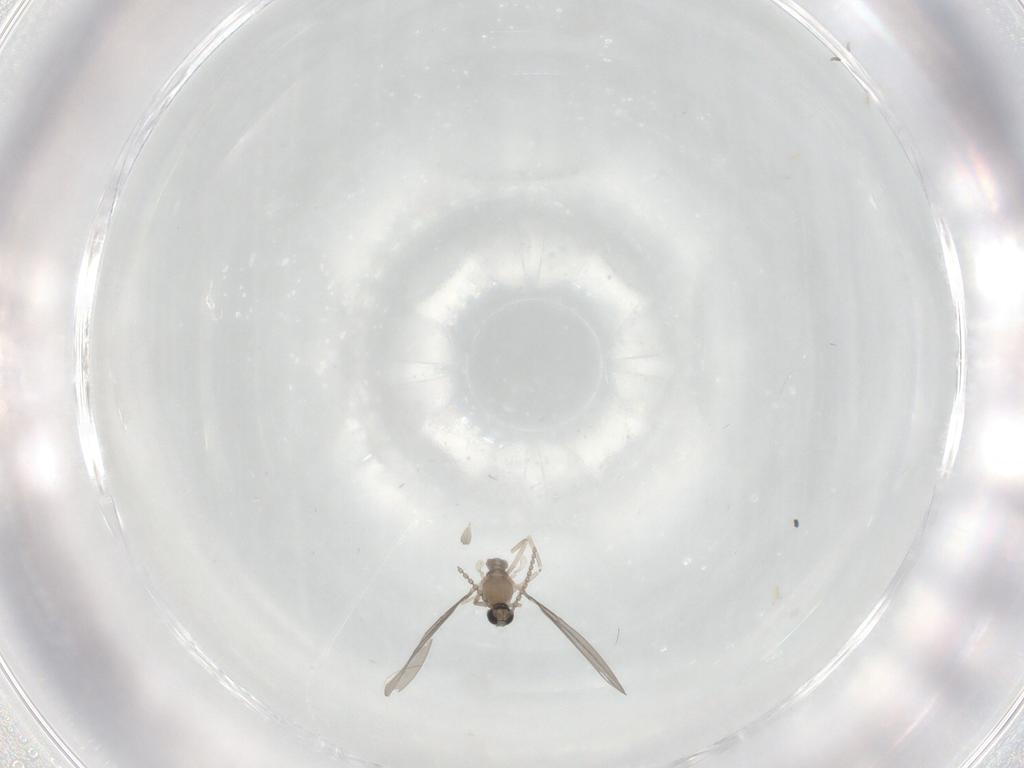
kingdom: Animalia
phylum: Arthropoda
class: Insecta
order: Diptera
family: Cecidomyiidae
